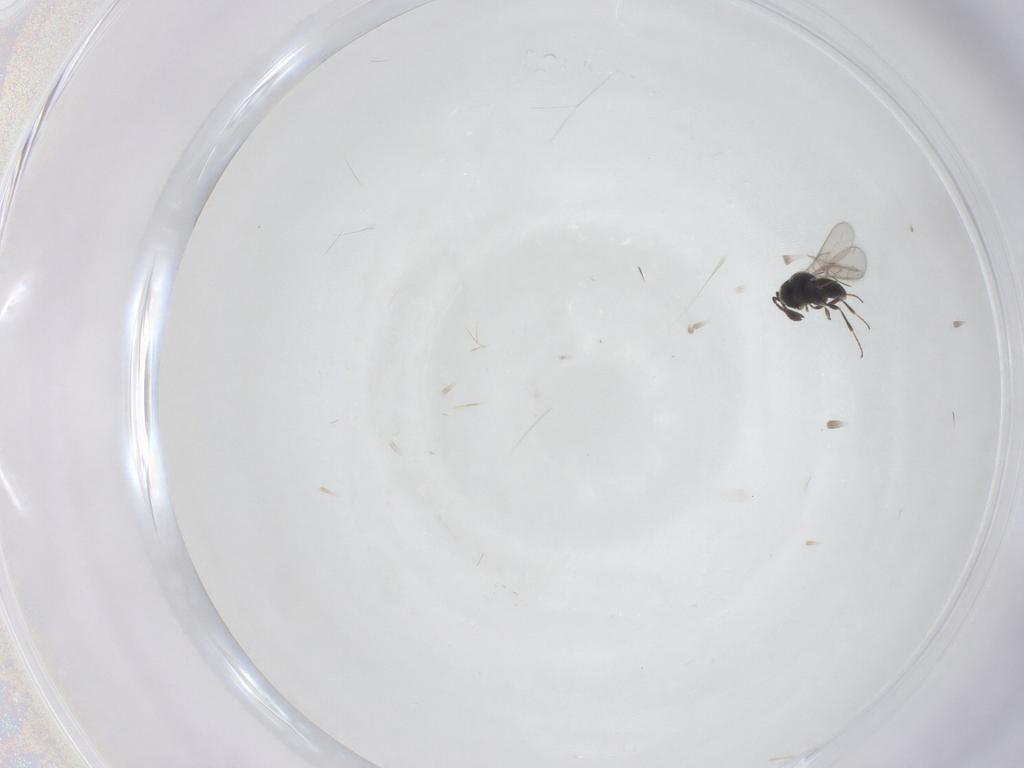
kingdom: Animalia
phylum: Arthropoda
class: Insecta
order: Hymenoptera
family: Scelionidae
